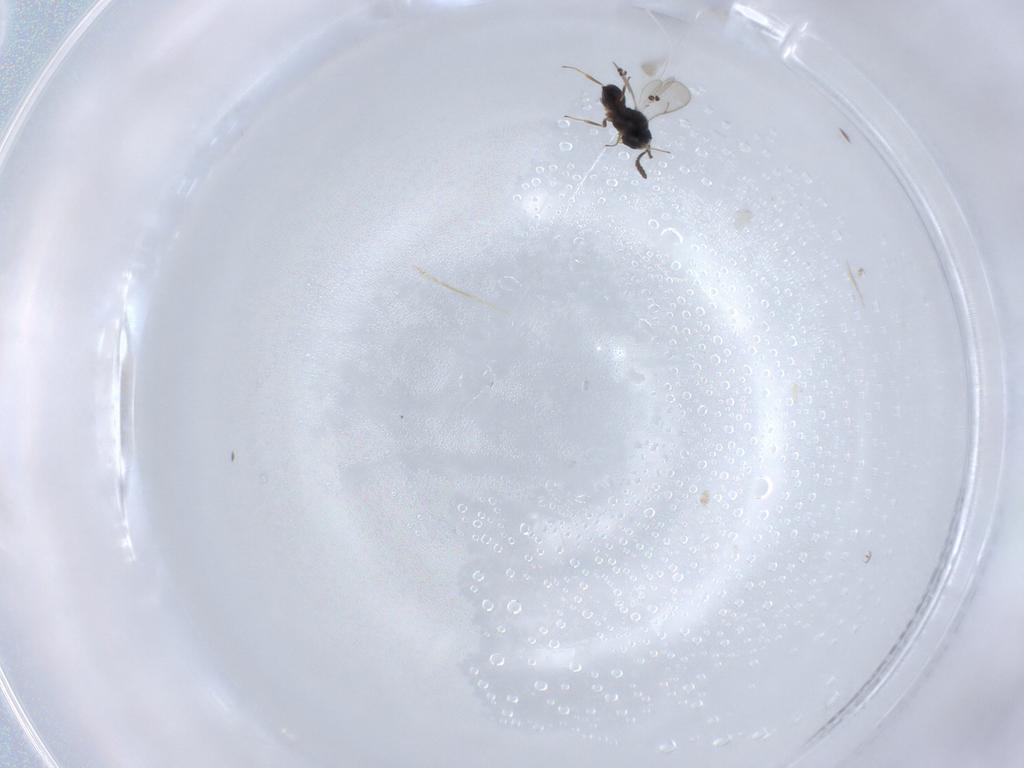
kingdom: Animalia
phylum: Arthropoda
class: Insecta
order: Hymenoptera
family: Scelionidae
